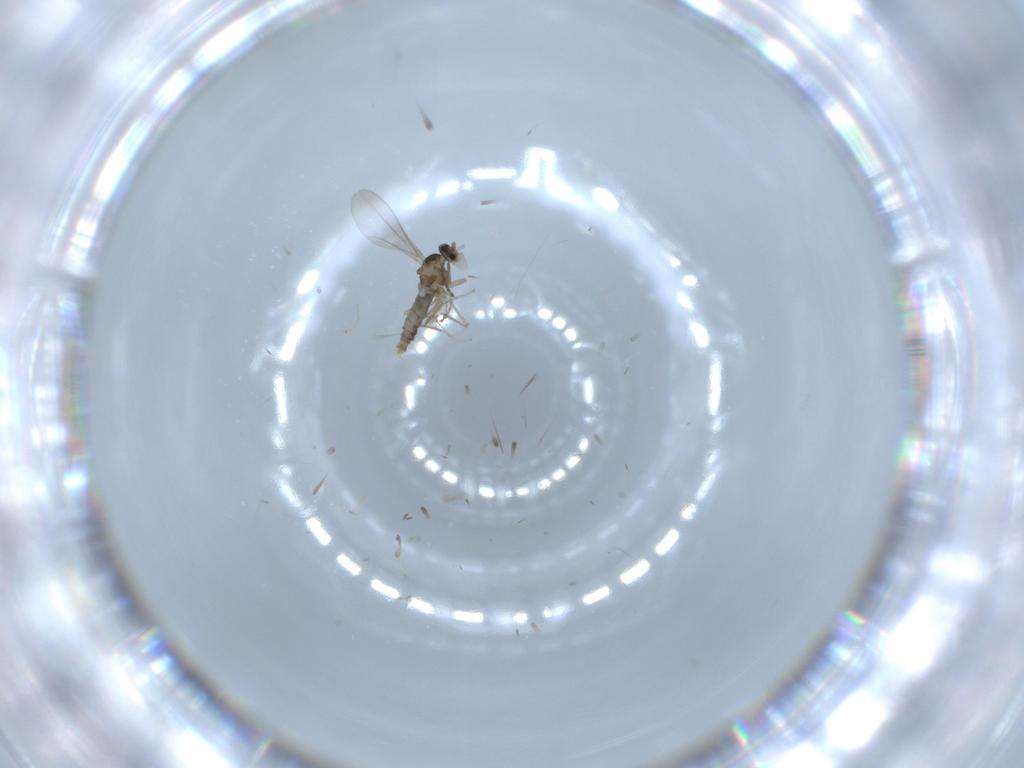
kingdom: Animalia
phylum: Arthropoda
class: Insecta
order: Diptera
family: Cecidomyiidae
